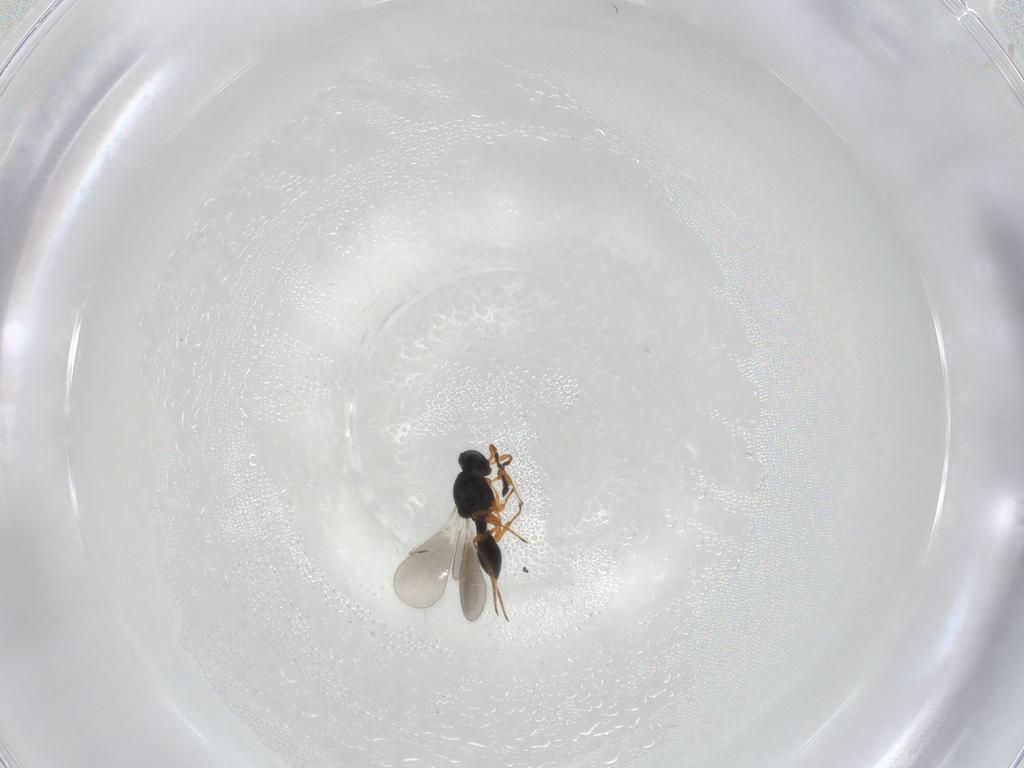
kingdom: Animalia
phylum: Arthropoda
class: Insecta
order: Hymenoptera
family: Platygastridae
